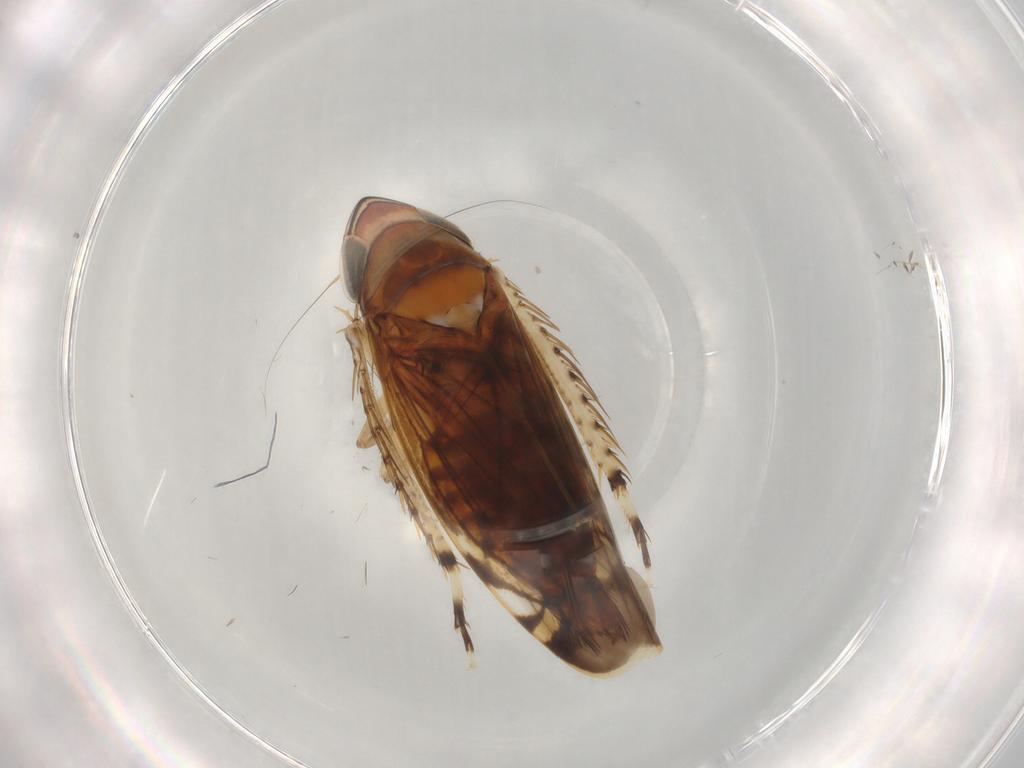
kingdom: Animalia
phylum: Arthropoda
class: Insecta
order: Hemiptera
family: Cicadellidae
